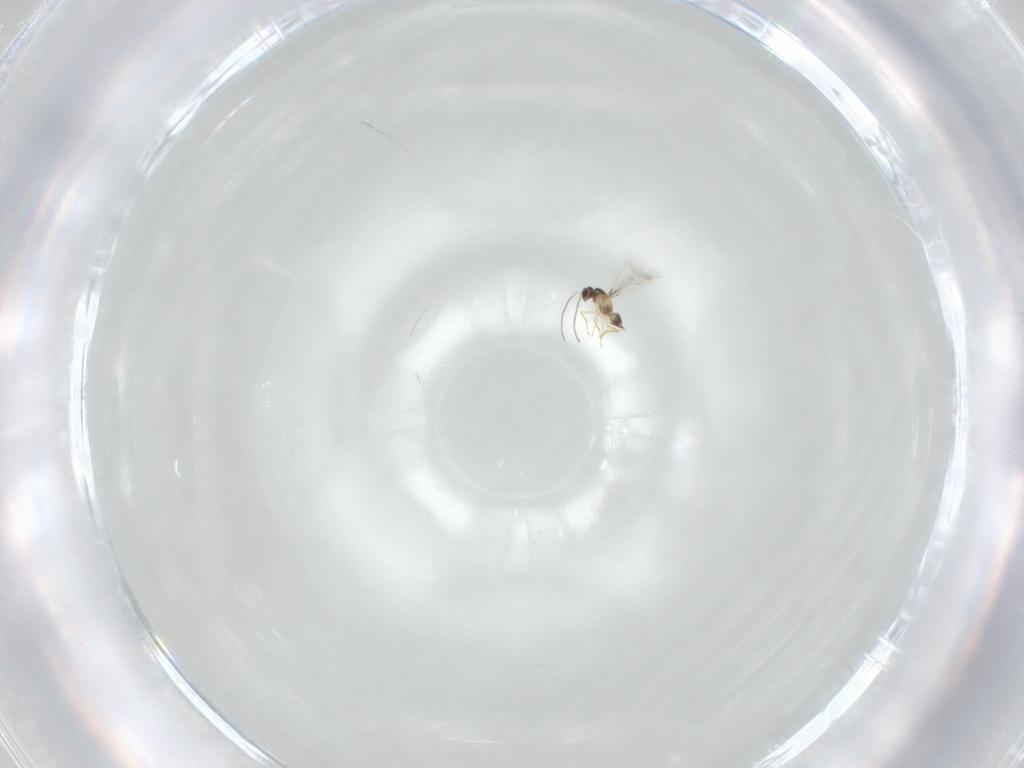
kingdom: Animalia
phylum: Arthropoda
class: Insecta
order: Hymenoptera
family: Mymaridae
